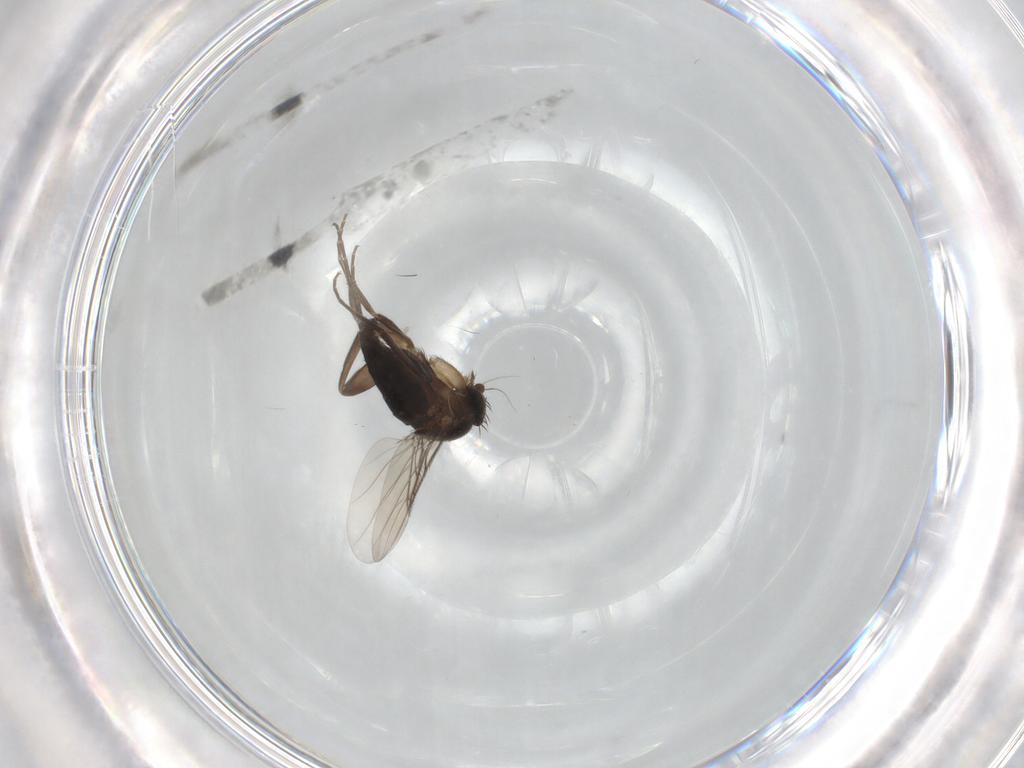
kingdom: Animalia
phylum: Arthropoda
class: Insecta
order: Diptera
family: Phoridae
